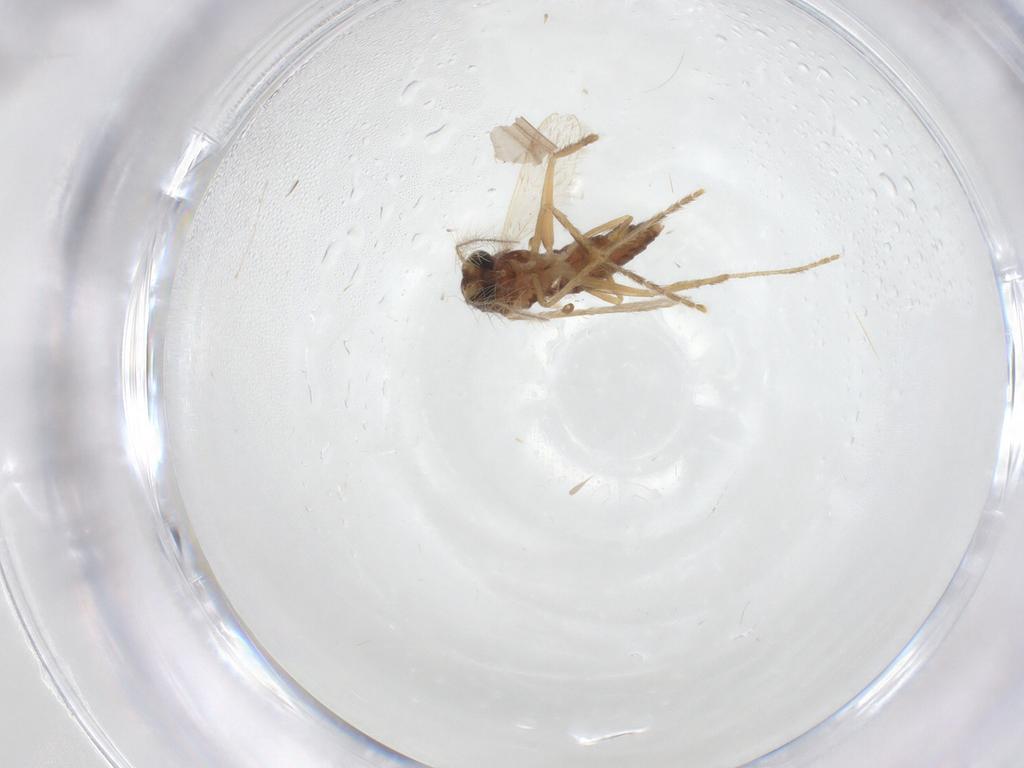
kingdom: Animalia
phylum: Arthropoda
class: Insecta
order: Diptera
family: Corethrellidae
